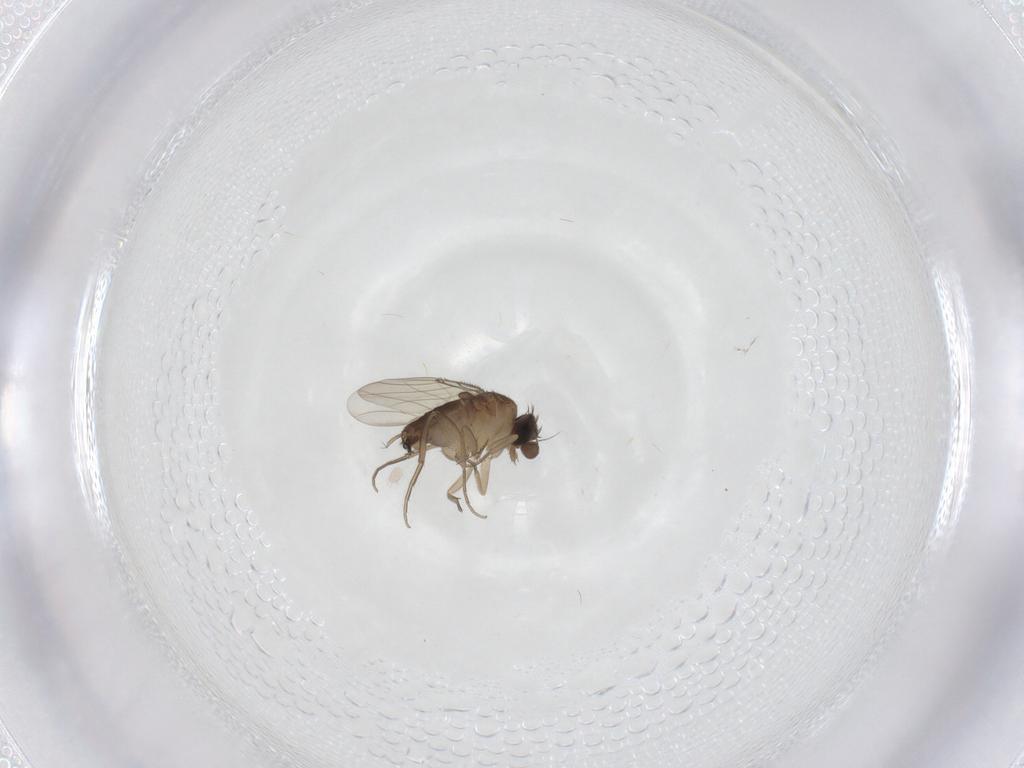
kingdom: Animalia
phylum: Arthropoda
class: Insecta
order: Diptera
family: Phoridae
